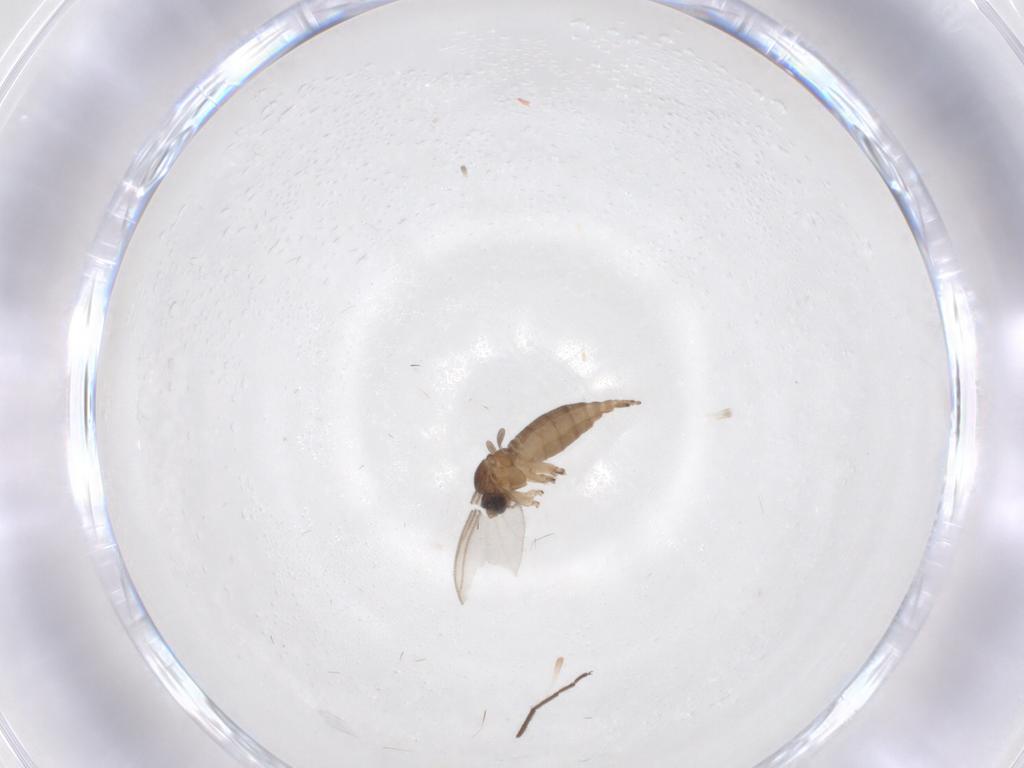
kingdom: Animalia
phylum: Arthropoda
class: Insecta
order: Diptera
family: Sciaridae
